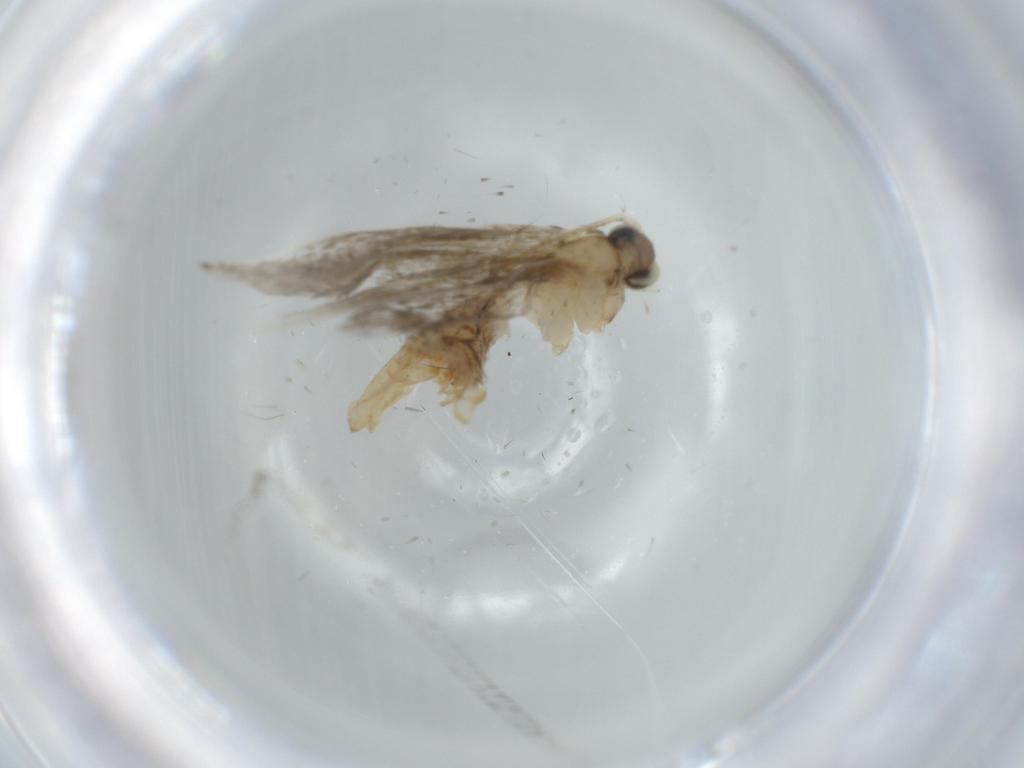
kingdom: Animalia
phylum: Arthropoda
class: Insecta
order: Lepidoptera
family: Tineidae
